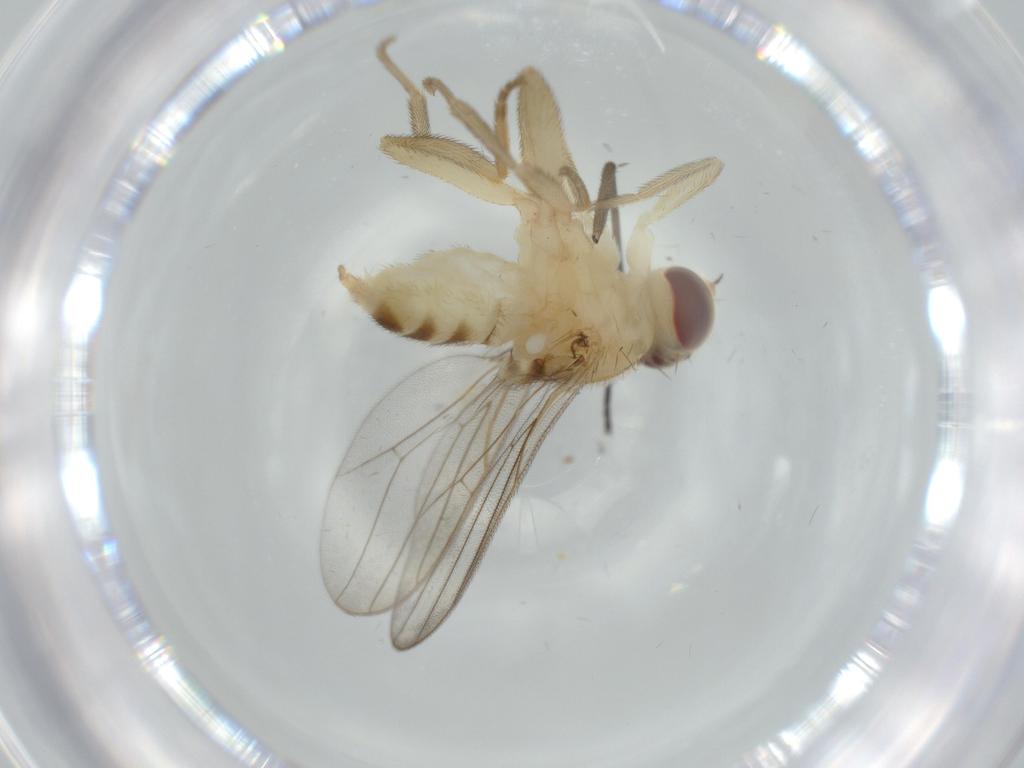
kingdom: Animalia
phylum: Arthropoda
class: Insecta
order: Diptera
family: Chloropidae
